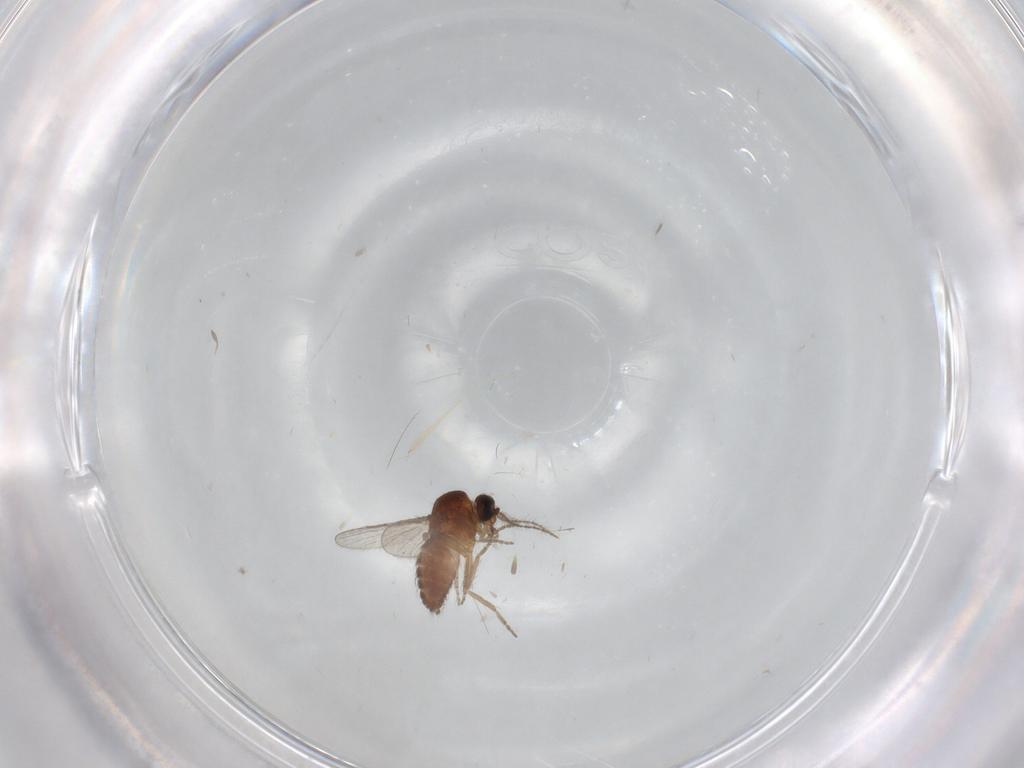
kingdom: Animalia
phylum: Arthropoda
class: Insecta
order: Diptera
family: Ceratopogonidae
